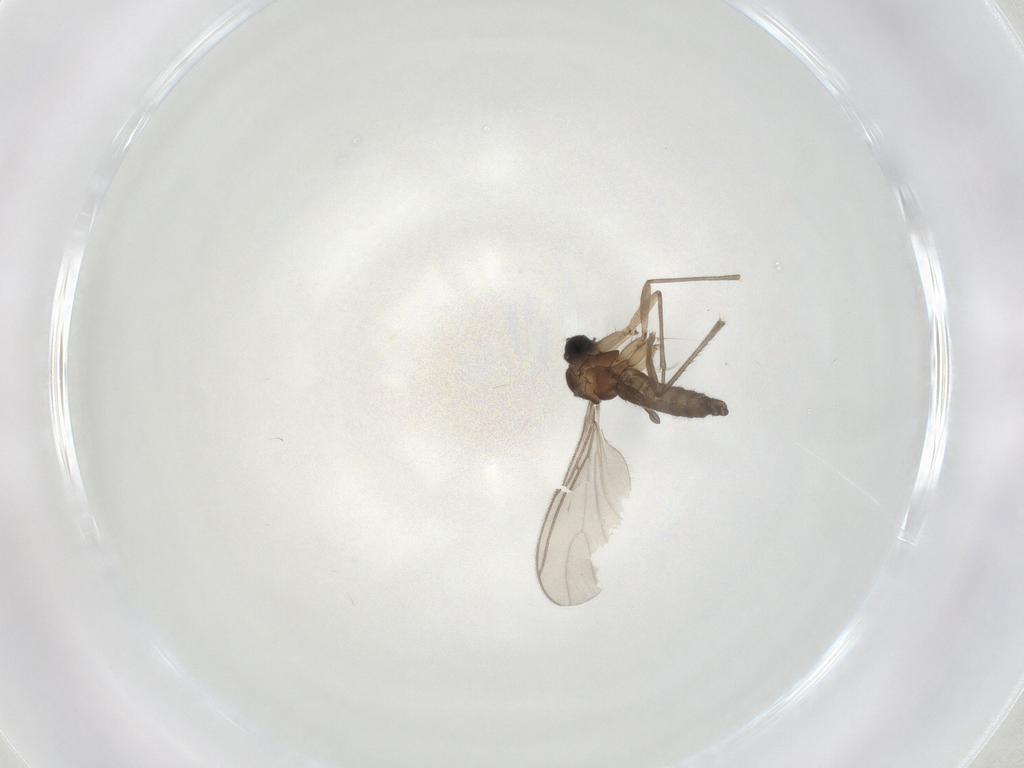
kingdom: Animalia
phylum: Arthropoda
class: Insecta
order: Diptera
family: Sciaridae
